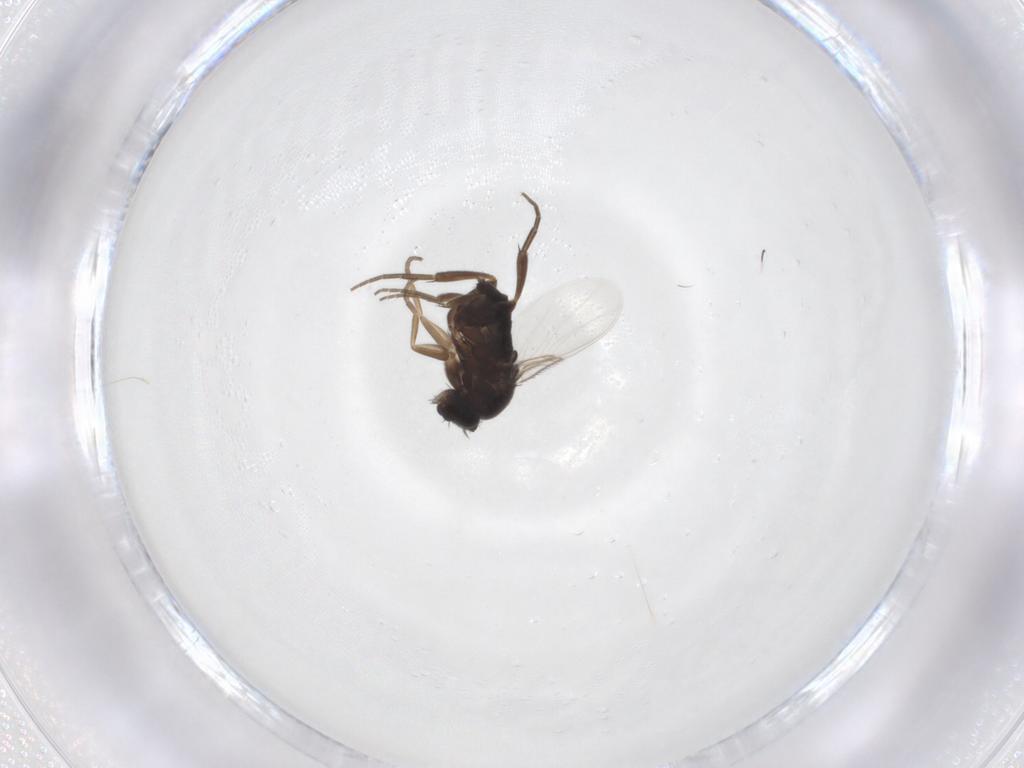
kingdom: Animalia
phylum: Arthropoda
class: Insecta
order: Diptera
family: Phoridae
